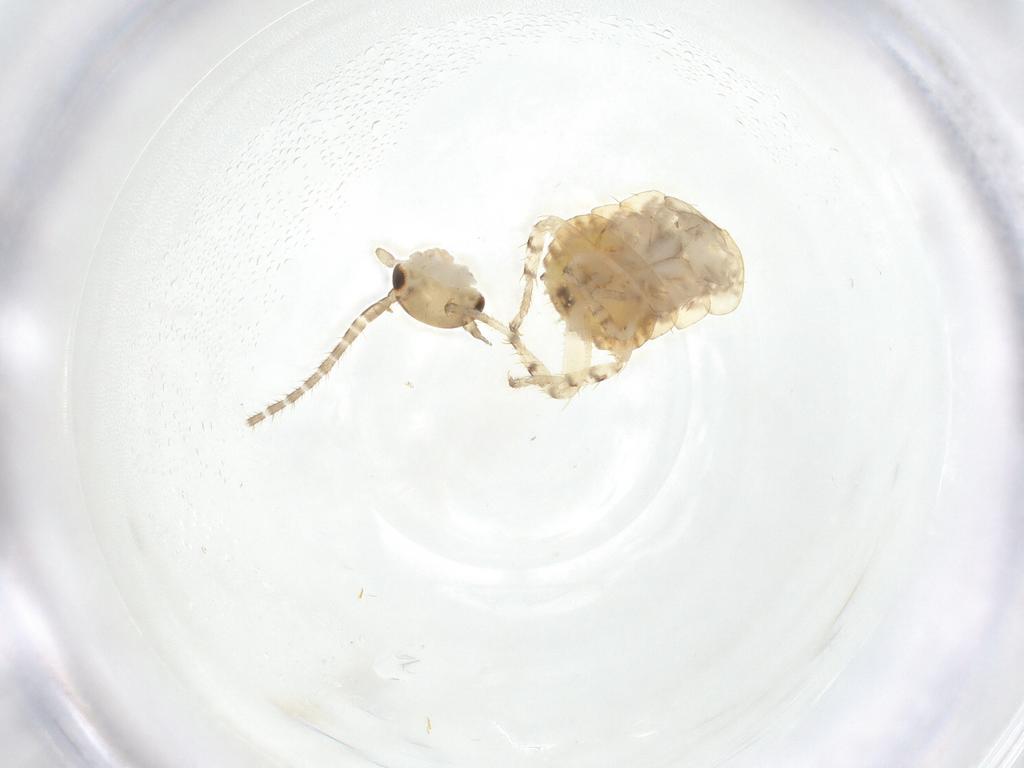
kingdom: Animalia
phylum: Arthropoda
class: Insecta
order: Blattodea
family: Ectobiidae
